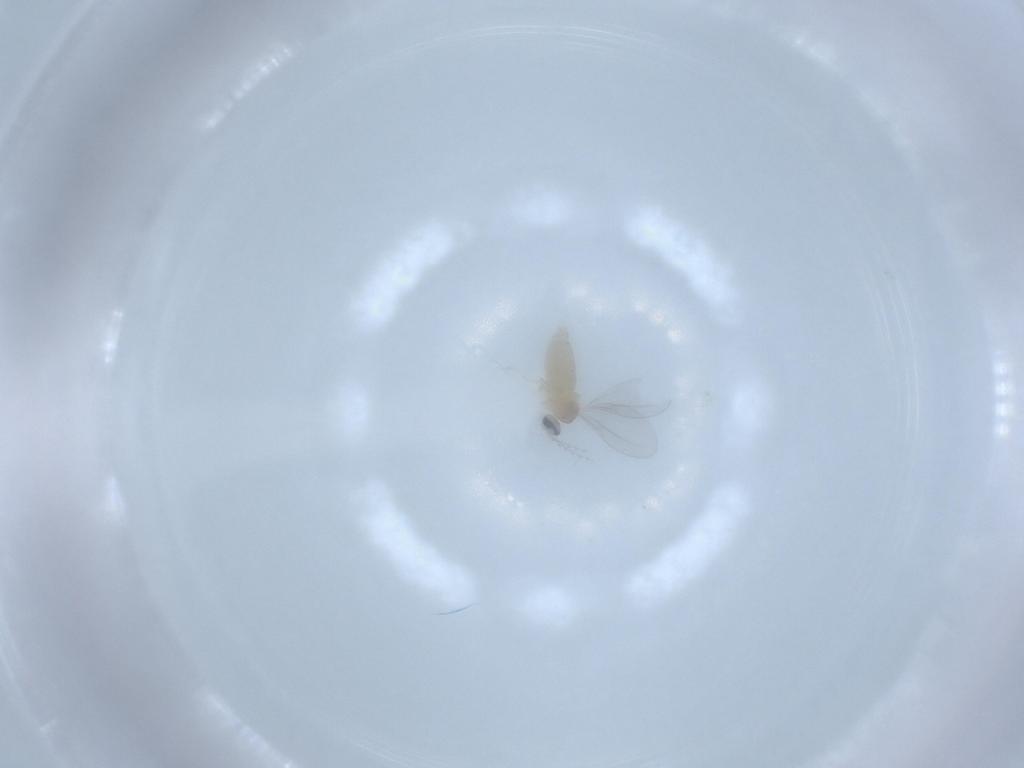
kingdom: Animalia
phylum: Arthropoda
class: Insecta
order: Diptera
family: Cecidomyiidae
